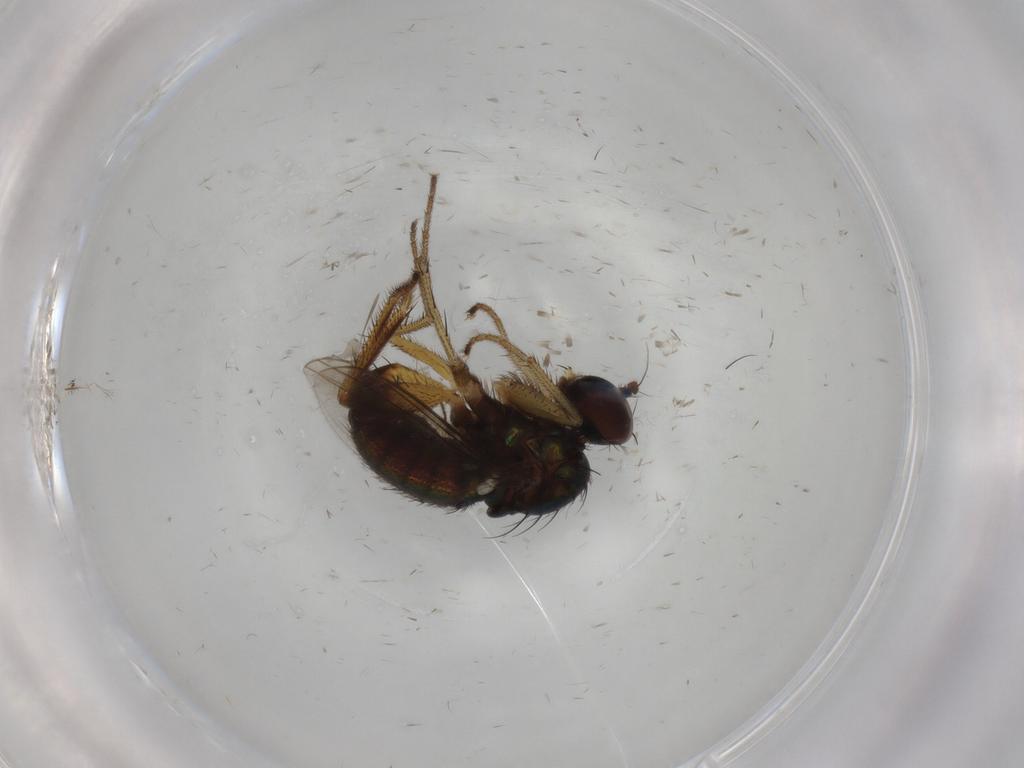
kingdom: Animalia
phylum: Arthropoda
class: Insecta
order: Diptera
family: Dolichopodidae
